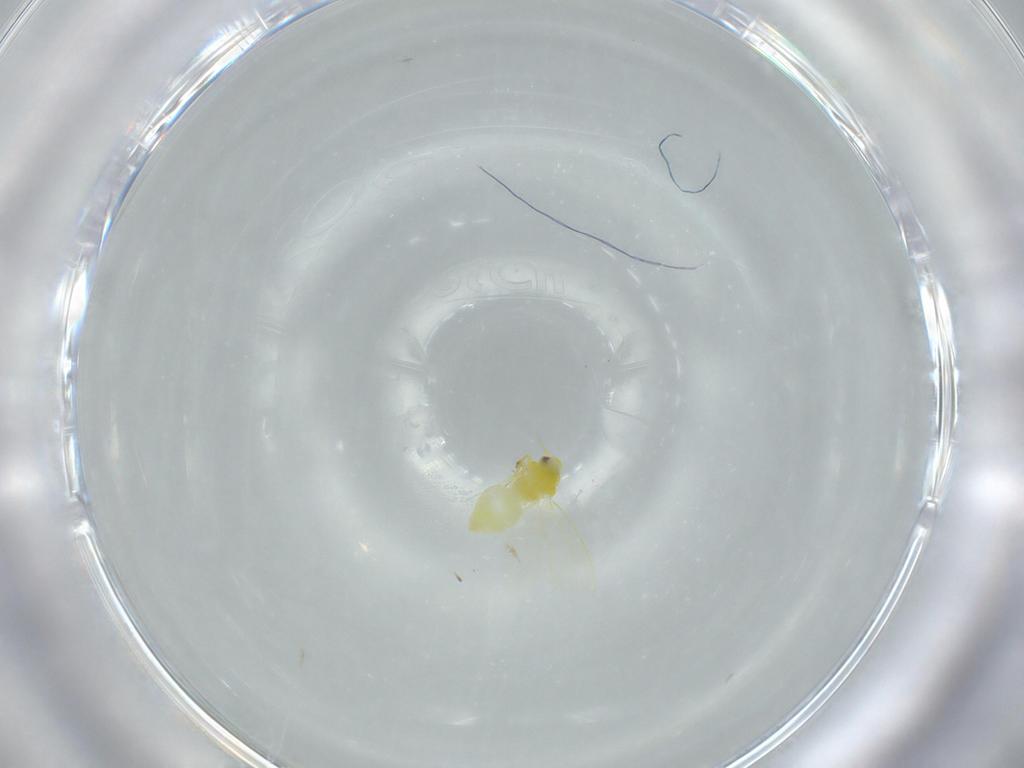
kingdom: Animalia
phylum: Arthropoda
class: Insecta
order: Hemiptera
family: Aleyrodidae
